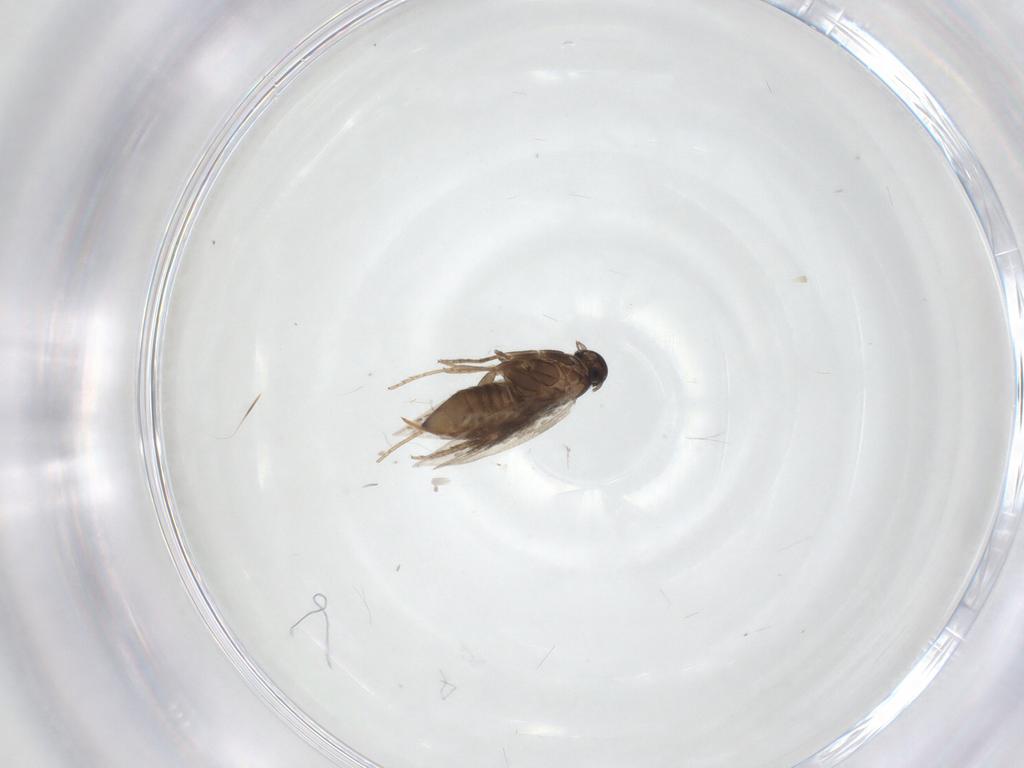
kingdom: Animalia
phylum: Arthropoda
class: Insecta
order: Lepidoptera
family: Heliozelidae
